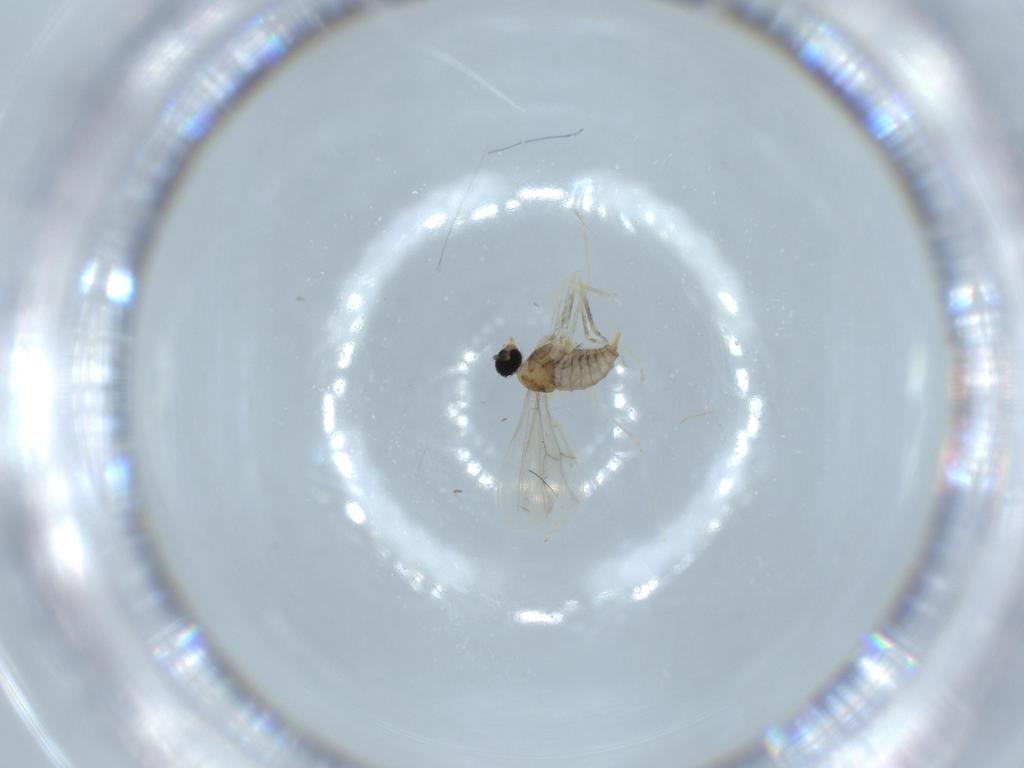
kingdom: Animalia
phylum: Arthropoda
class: Insecta
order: Diptera
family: Cecidomyiidae
